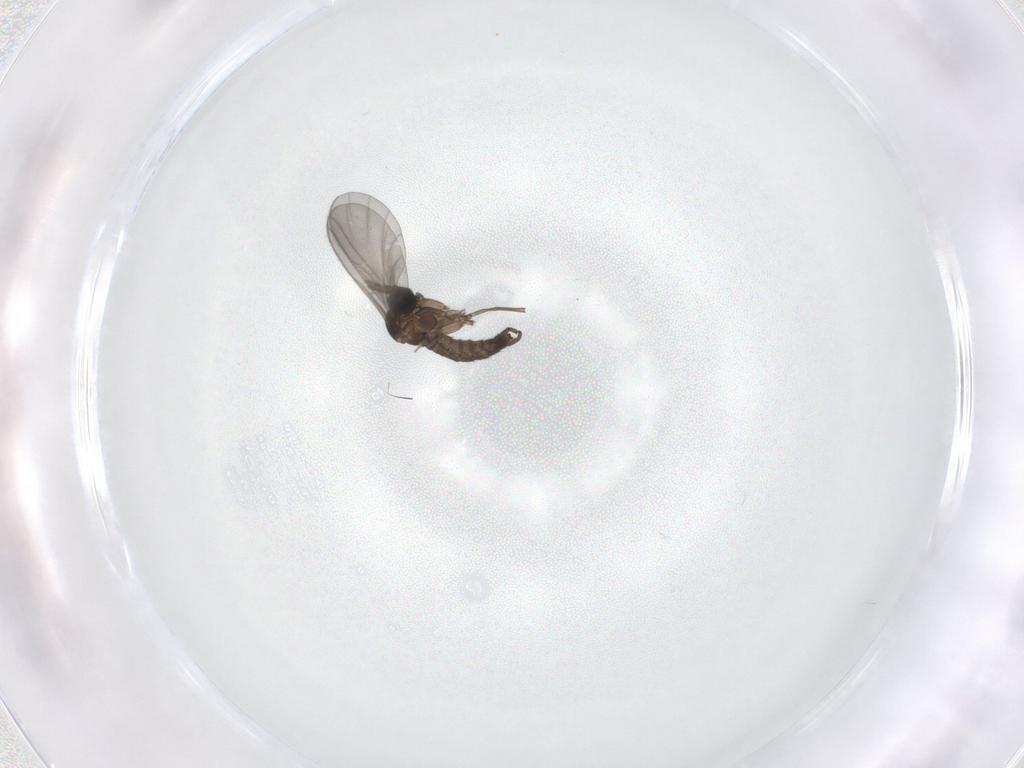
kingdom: Animalia
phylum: Arthropoda
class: Insecta
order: Diptera
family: Sciaridae
